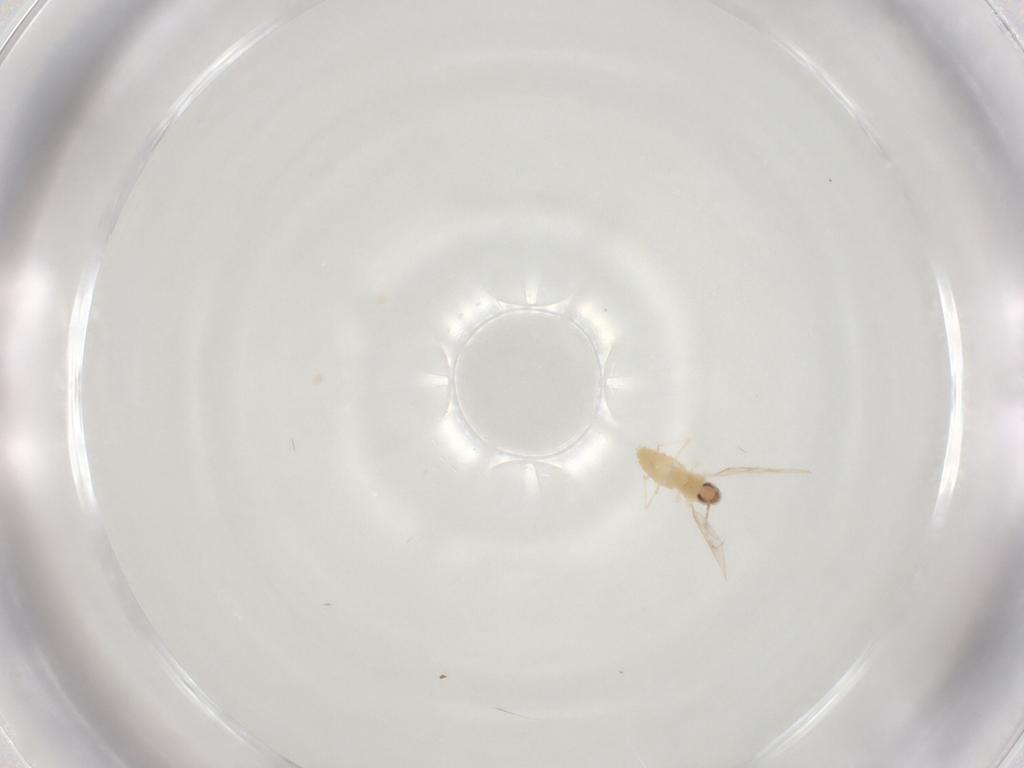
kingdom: Animalia
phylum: Arthropoda
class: Insecta
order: Diptera
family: Cecidomyiidae
